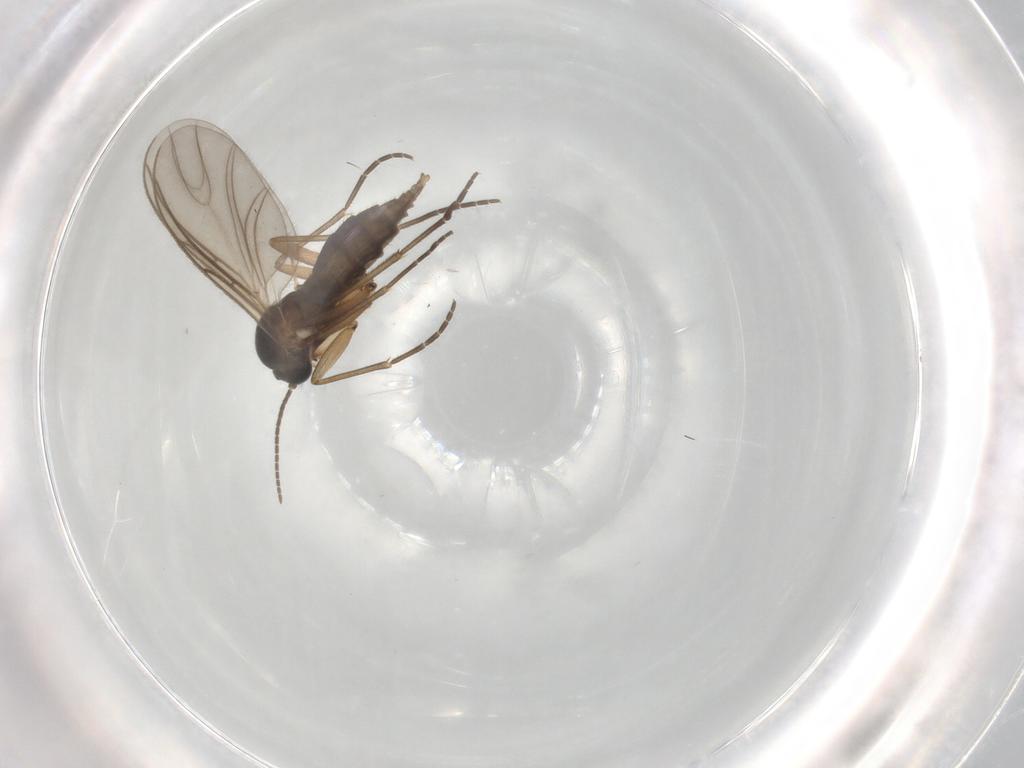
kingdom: Animalia
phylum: Arthropoda
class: Insecta
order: Diptera
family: Sciaridae
